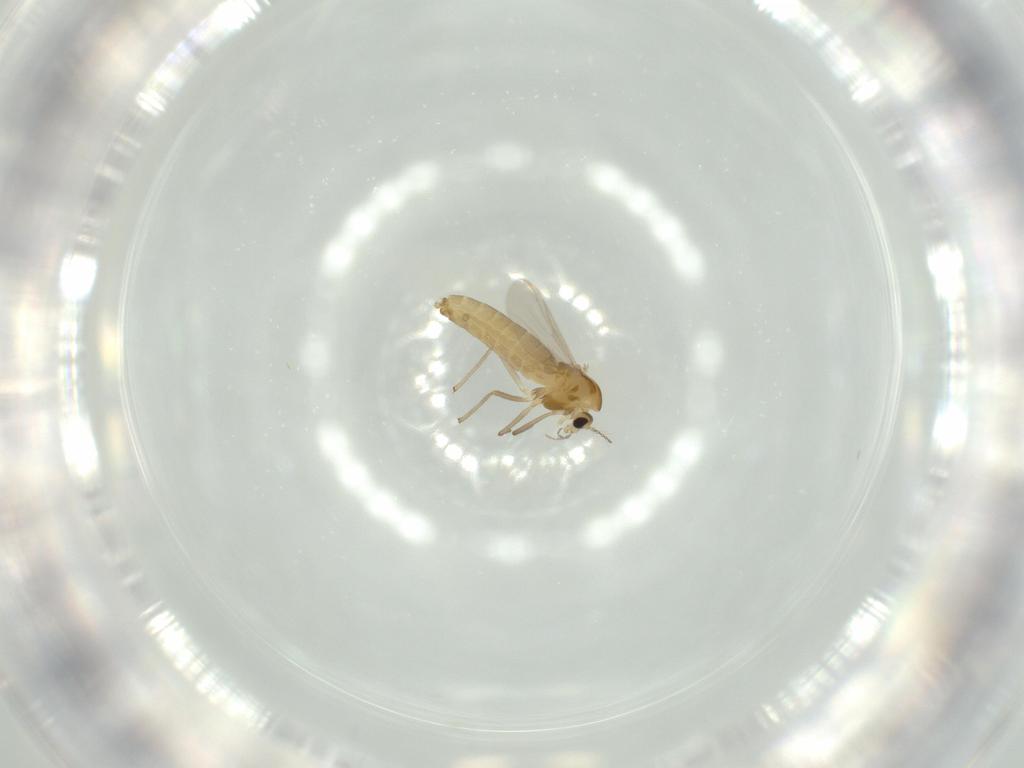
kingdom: Animalia
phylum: Arthropoda
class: Insecta
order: Diptera
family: Chironomidae
